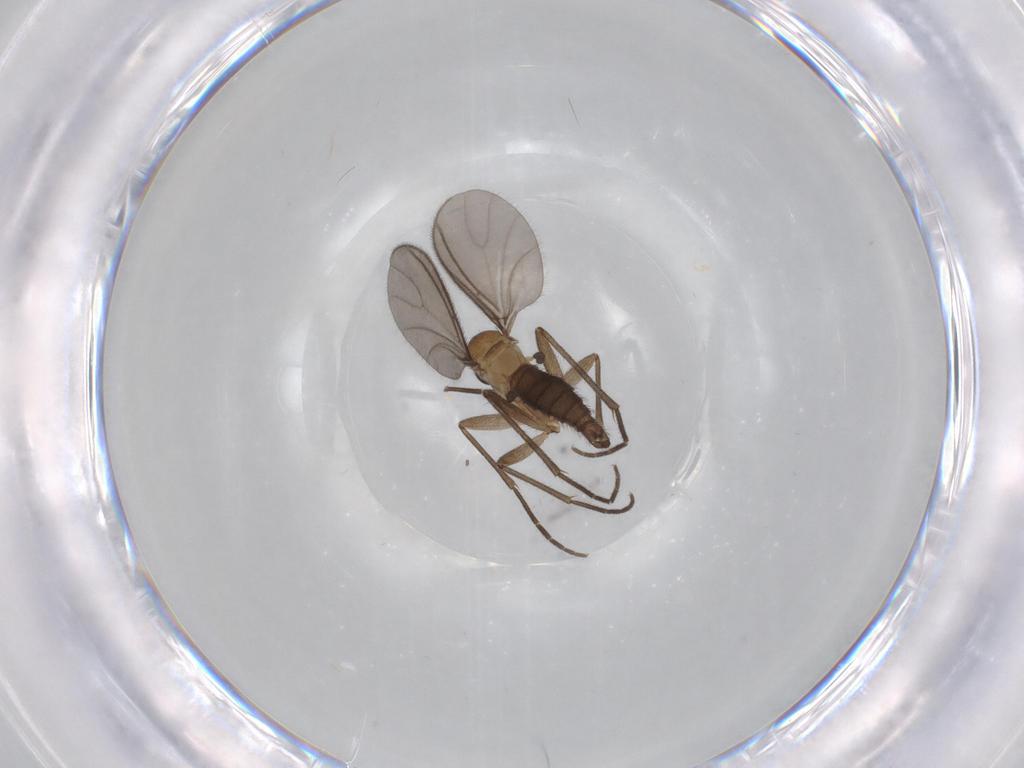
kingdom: Animalia
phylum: Arthropoda
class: Insecta
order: Diptera
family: Sciaridae
